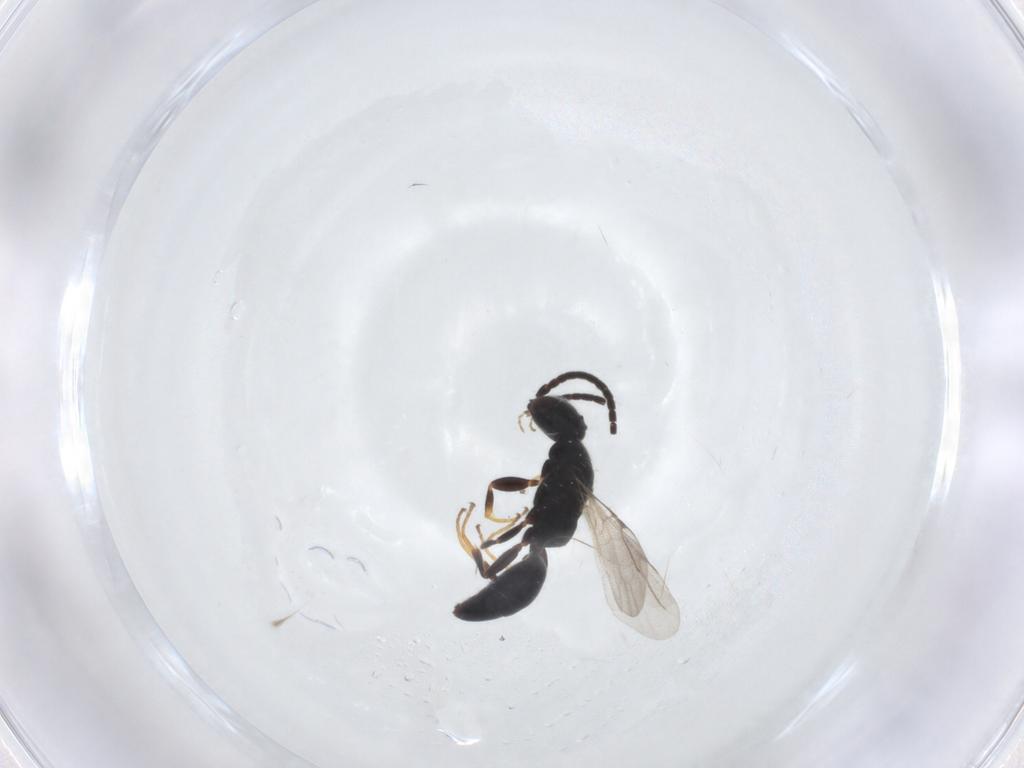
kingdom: Animalia
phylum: Arthropoda
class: Insecta
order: Hymenoptera
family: Bethylidae
